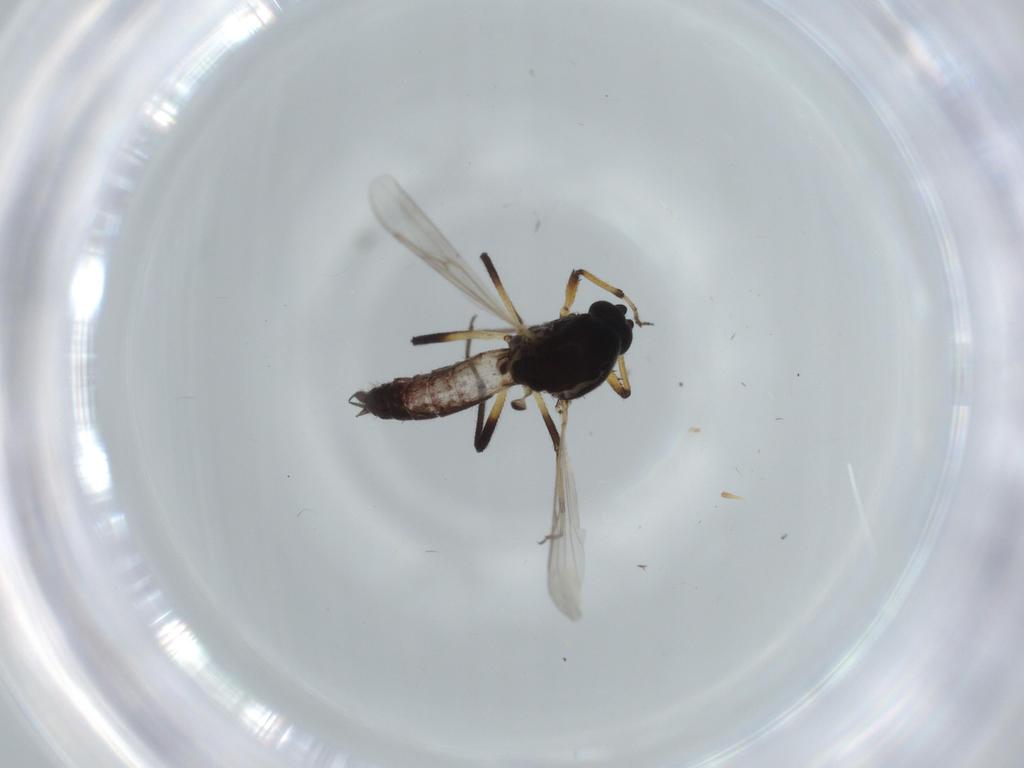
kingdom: Animalia
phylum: Arthropoda
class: Insecta
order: Diptera
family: Ceratopogonidae
